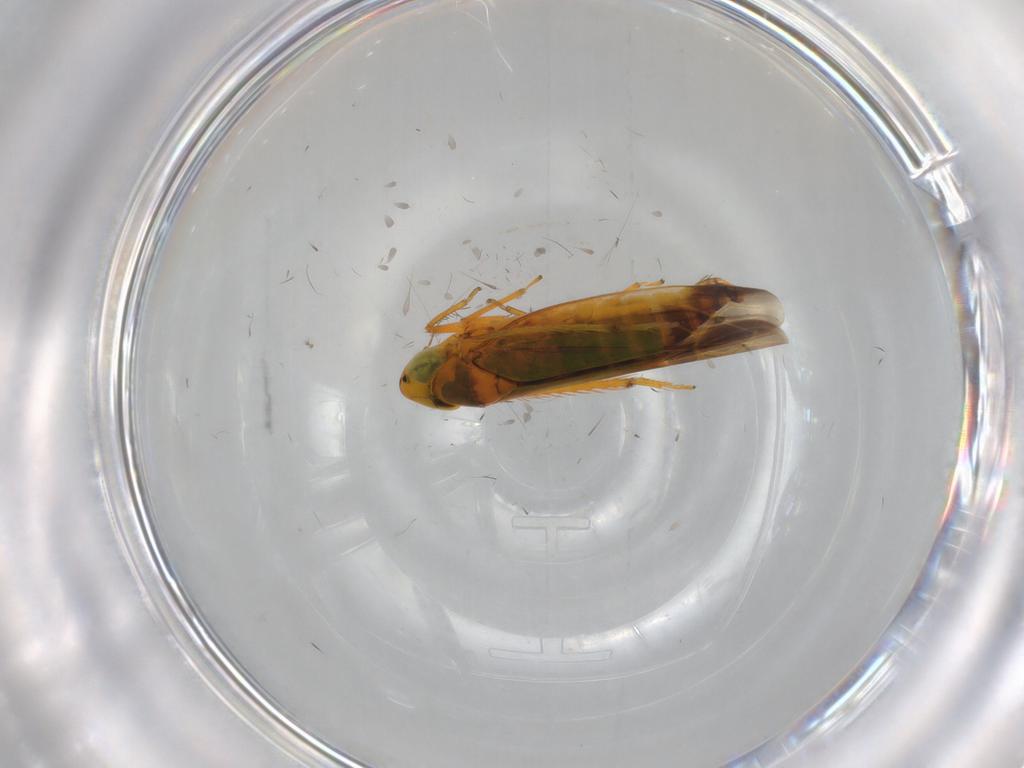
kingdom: Animalia
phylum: Arthropoda
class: Insecta
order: Hemiptera
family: Cicadellidae
